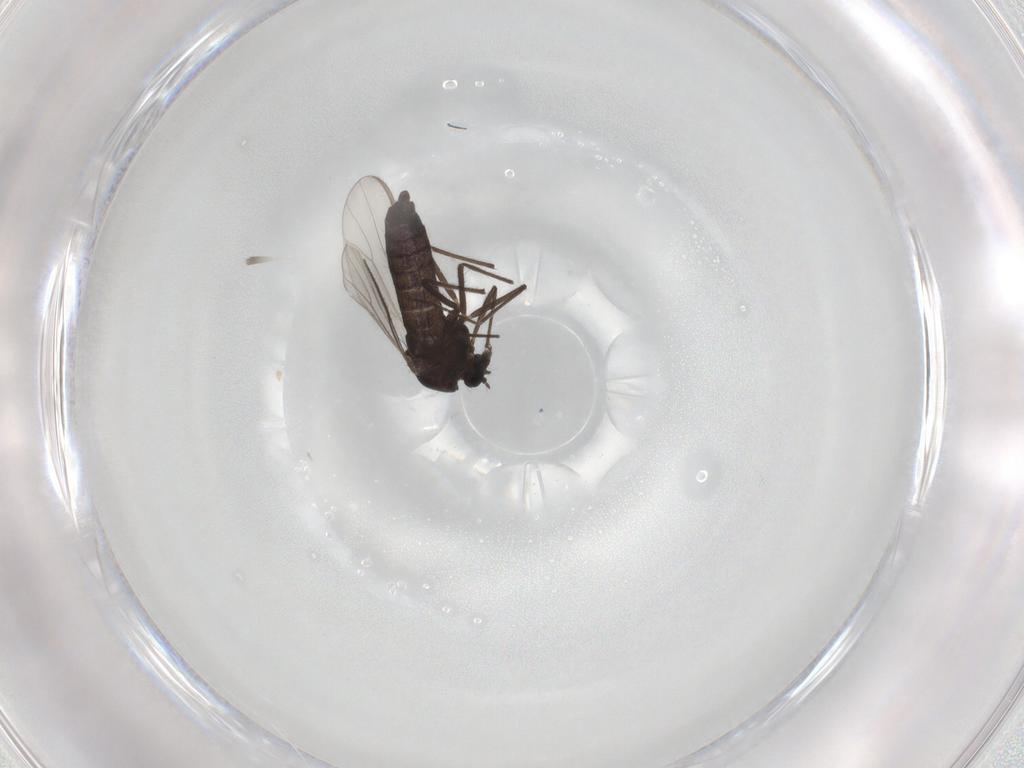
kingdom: Animalia
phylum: Arthropoda
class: Insecta
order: Diptera
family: Chironomidae
